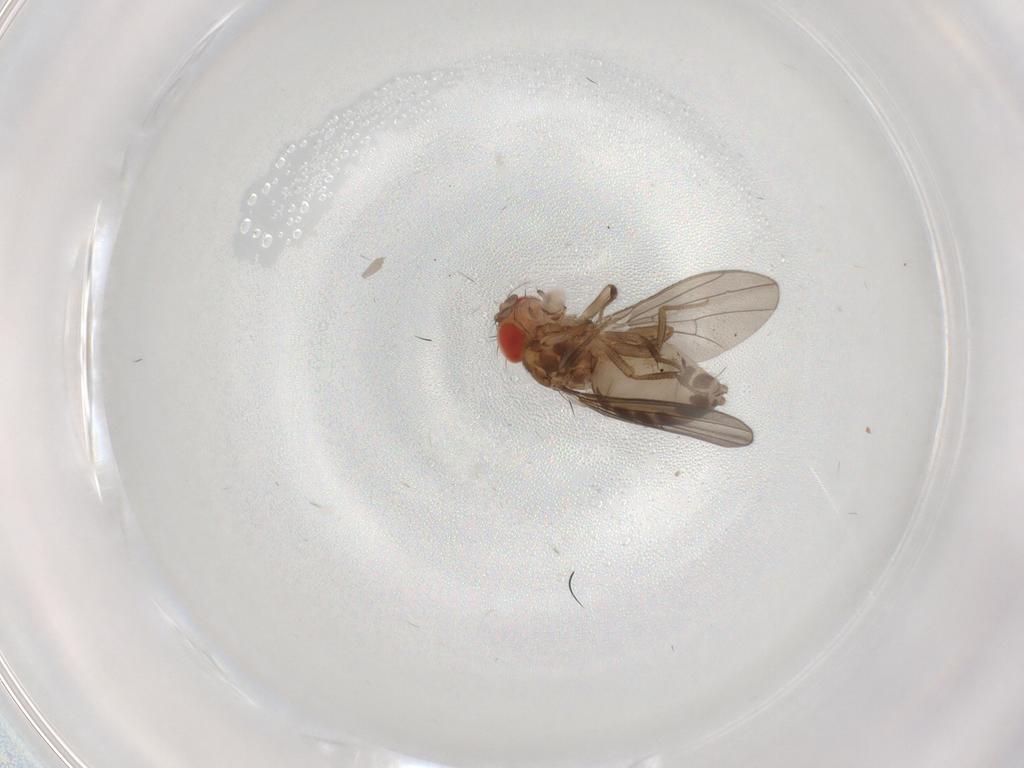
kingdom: Animalia
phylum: Arthropoda
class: Insecta
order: Diptera
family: Drosophilidae
